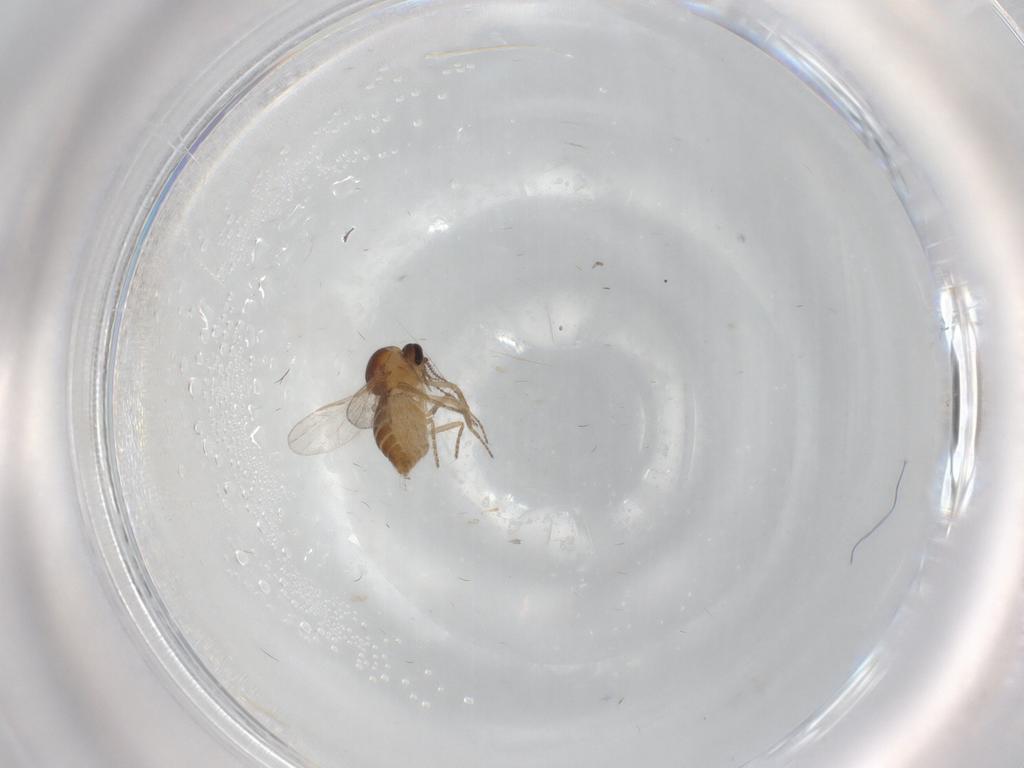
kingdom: Animalia
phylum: Arthropoda
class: Insecta
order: Diptera
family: Ceratopogonidae
